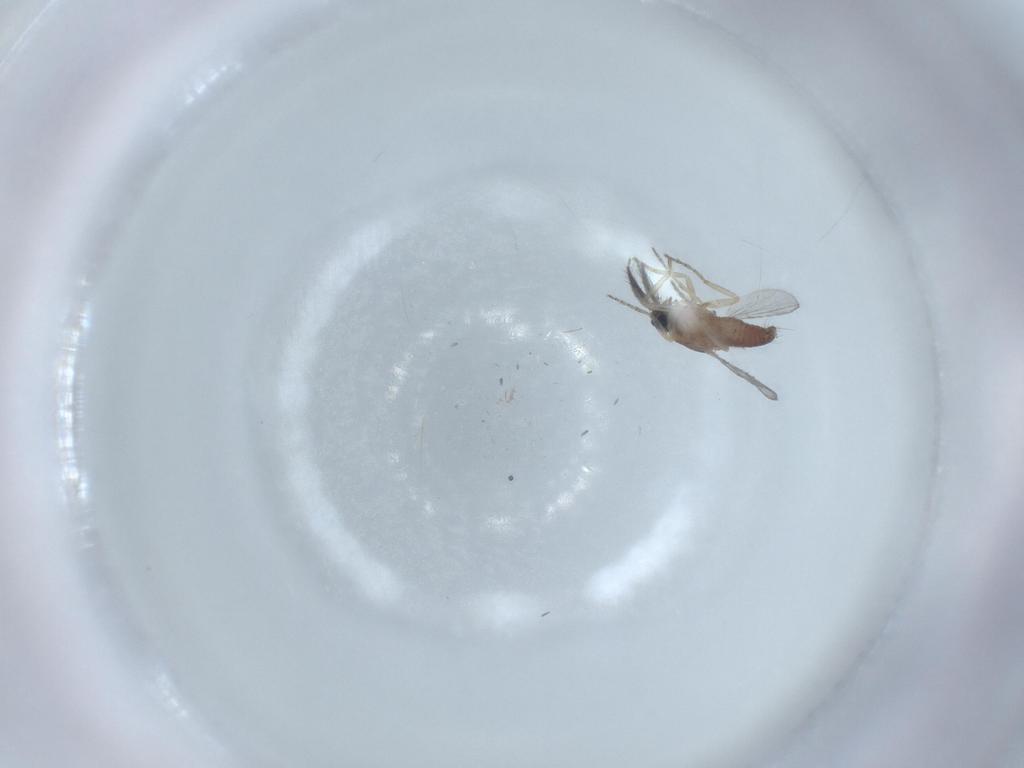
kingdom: Animalia
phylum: Arthropoda
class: Insecta
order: Diptera
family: Ceratopogonidae
